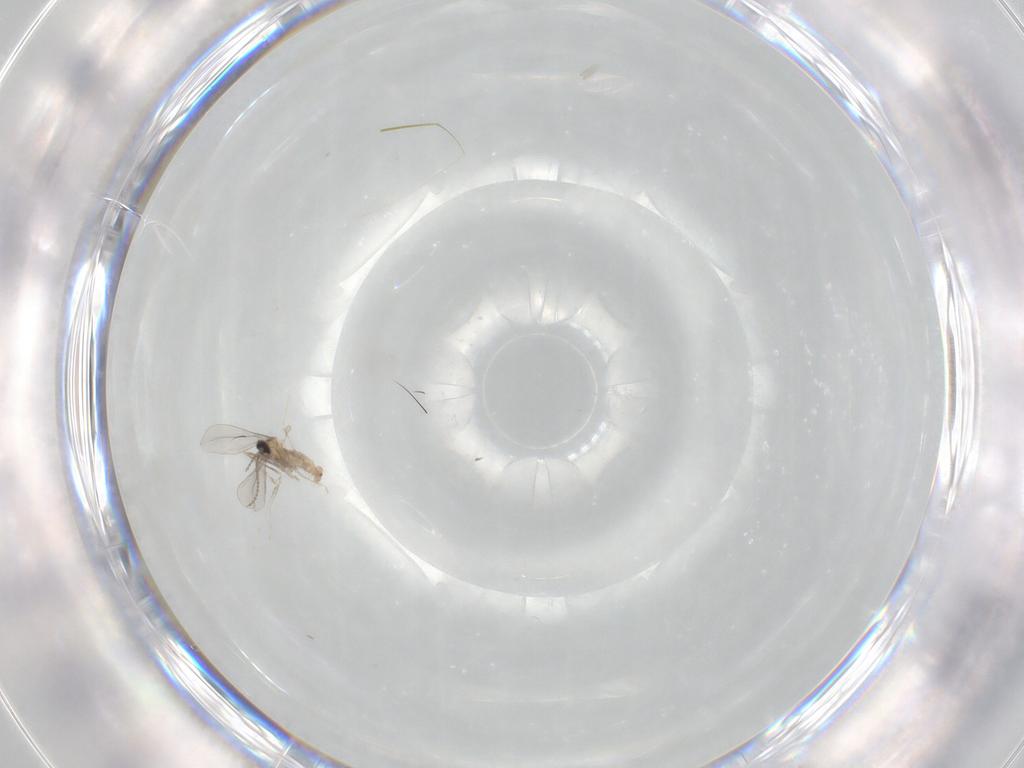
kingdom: Animalia
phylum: Arthropoda
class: Insecta
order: Diptera
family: Cecidomyiidae
